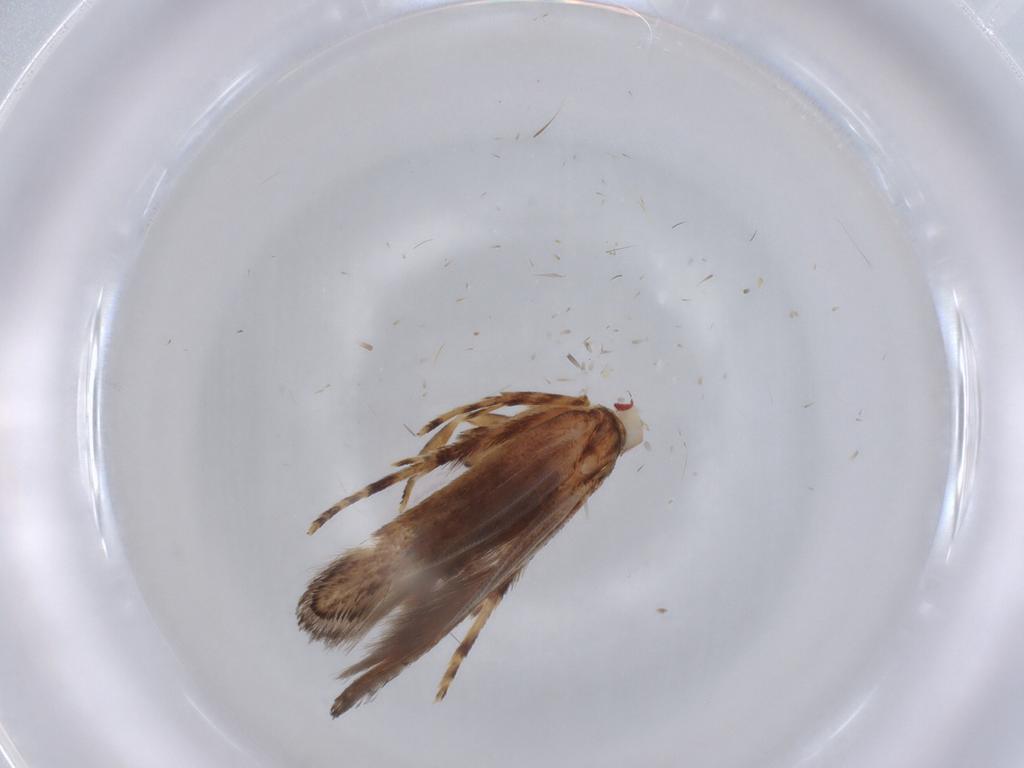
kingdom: Animalia
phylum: Arthropoda
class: Insecta
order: Lepidoptera
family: Cosmopterigidae
